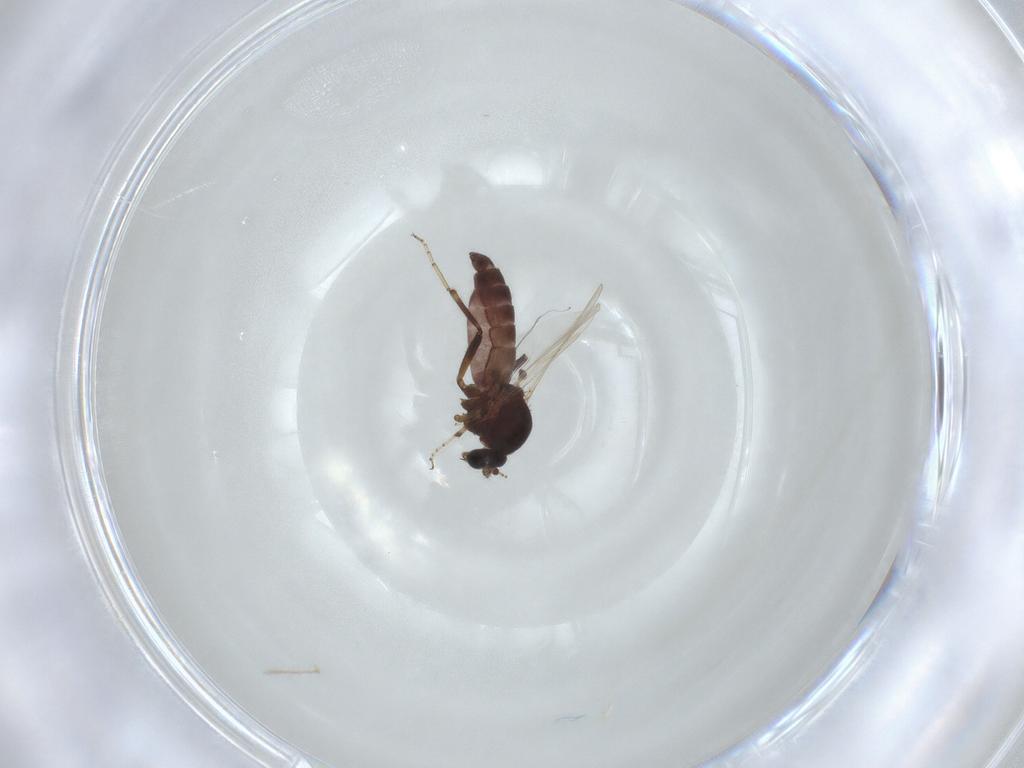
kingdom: Animalia
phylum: Arthropoda
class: Insecta
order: Diptera
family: Ceratopogonidae
